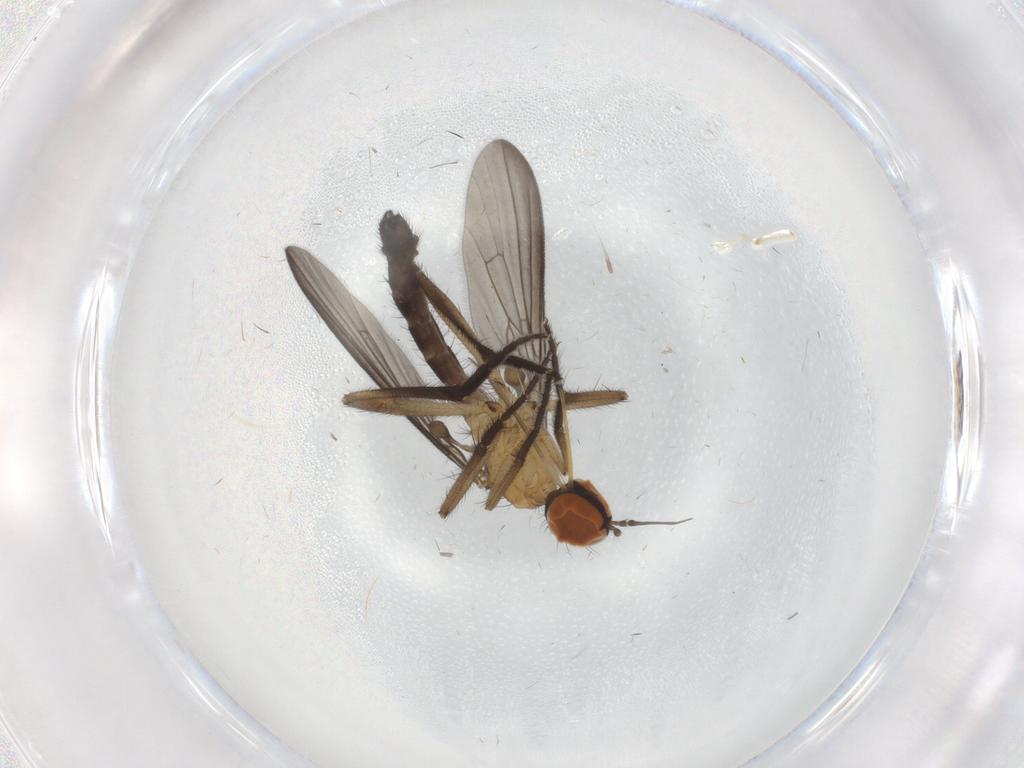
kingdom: Animalia
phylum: Arthropoda
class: Insecta
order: Diptera
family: Empididae
